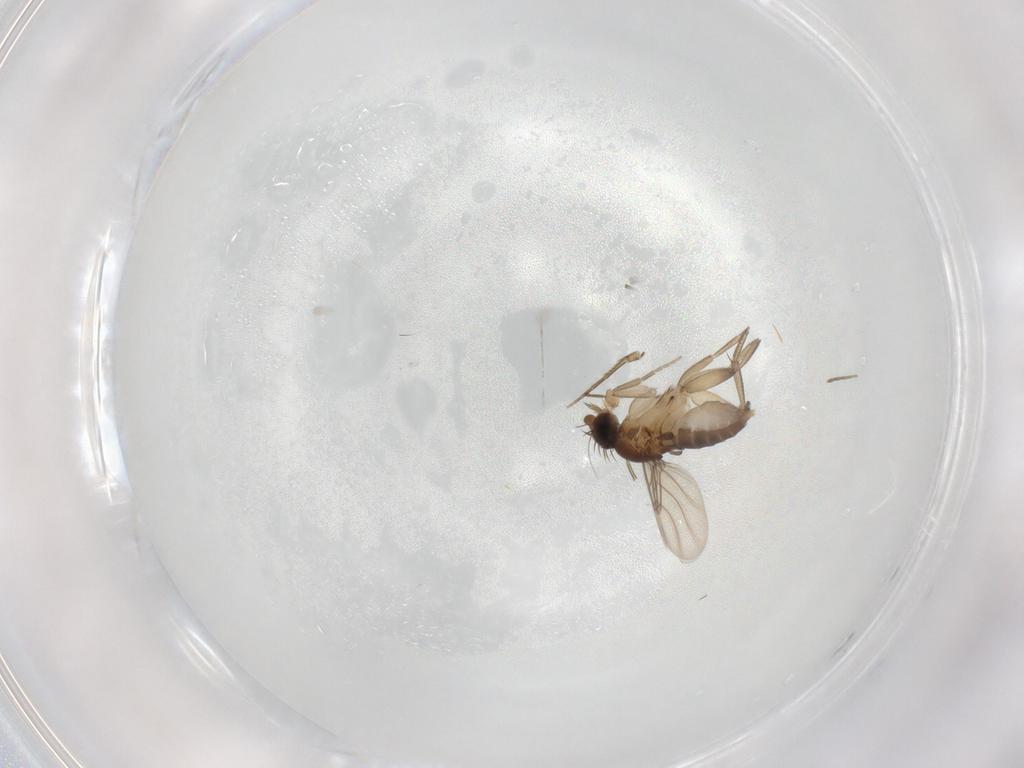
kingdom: Animalia
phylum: Arthropoda
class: Insecta
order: Diptera
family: Phoridae
